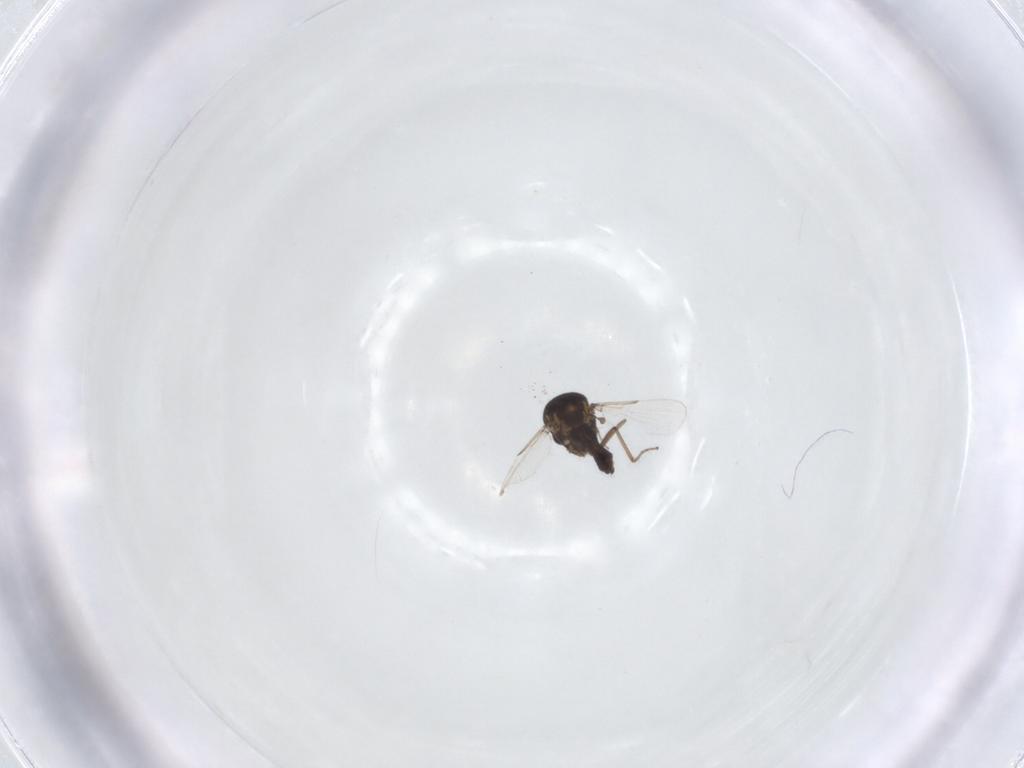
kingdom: Animalia
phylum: Arthropoda
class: Insecta
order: Diptera
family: Ceratopogonidae
